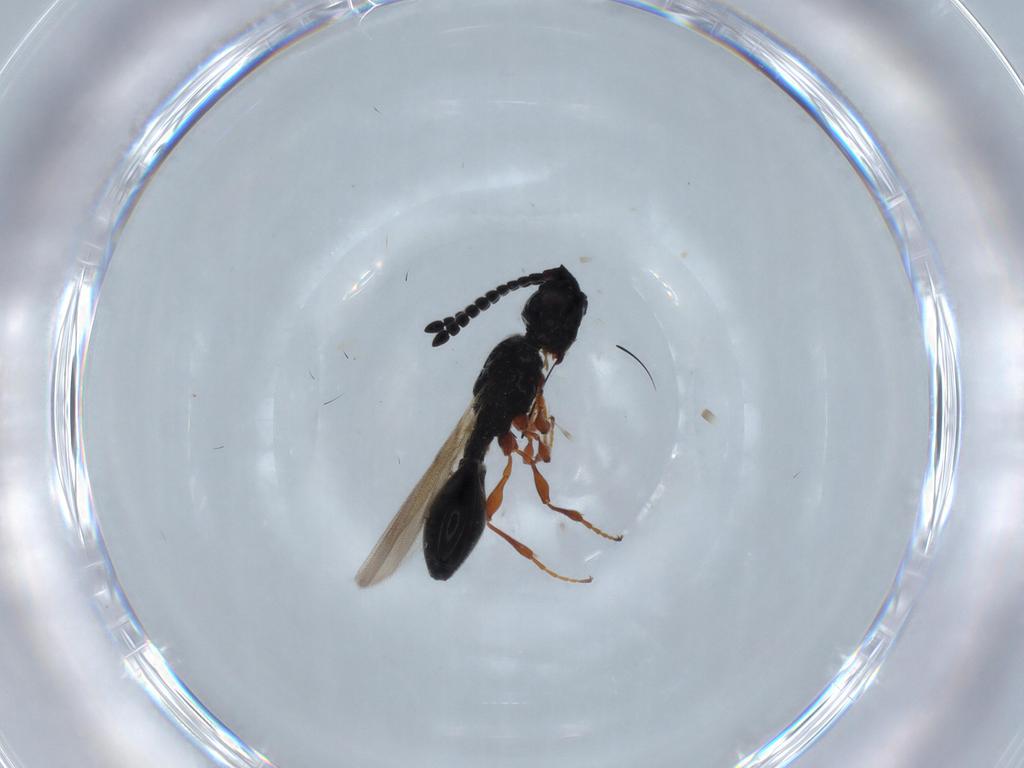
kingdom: Animalia
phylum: Arthropoda
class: Insecta
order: Hymenoptera
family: Diapriidae
